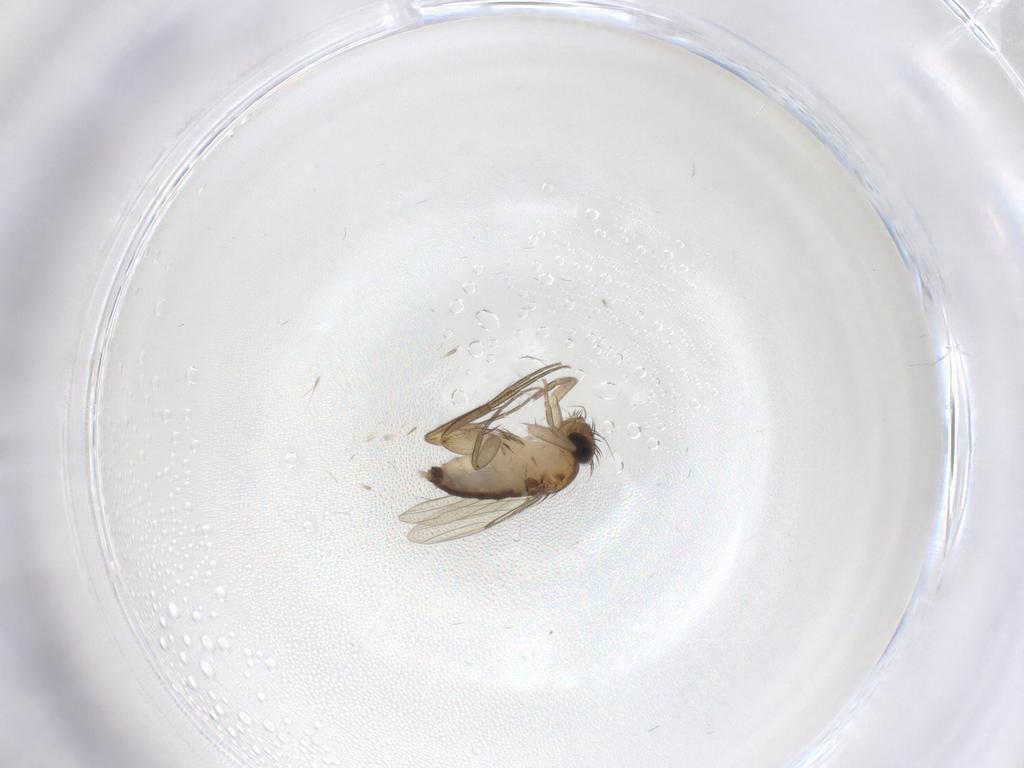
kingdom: Animalia
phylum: Arthropoda
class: Insecta
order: Diptera
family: Phoridae
